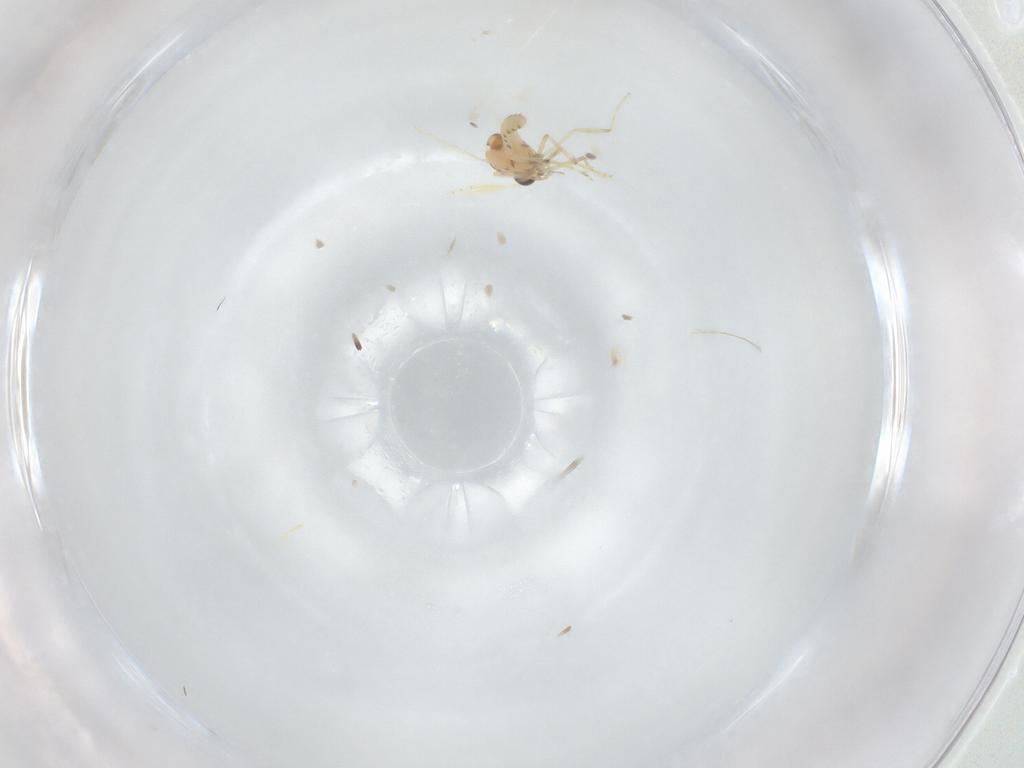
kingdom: Animalia
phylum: Arthropoda
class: Insecta
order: Diptera
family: Ceratopogonidae
